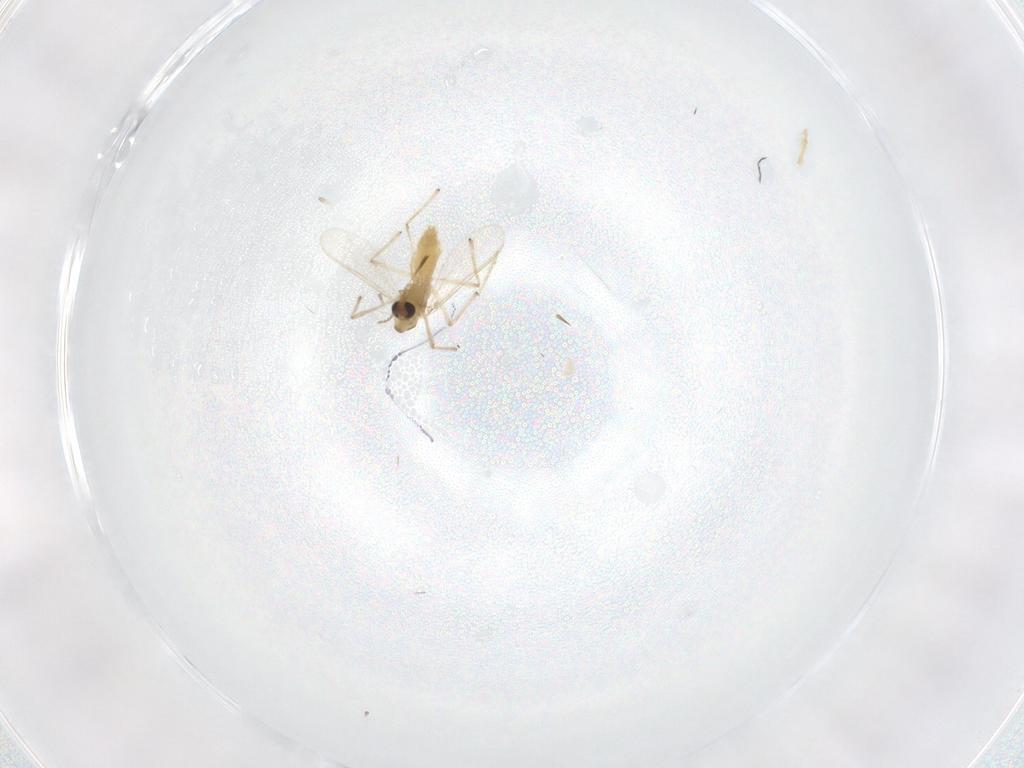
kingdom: Animalia
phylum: Arthropoda
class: Insecta
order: Diptera
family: Chironomidae
